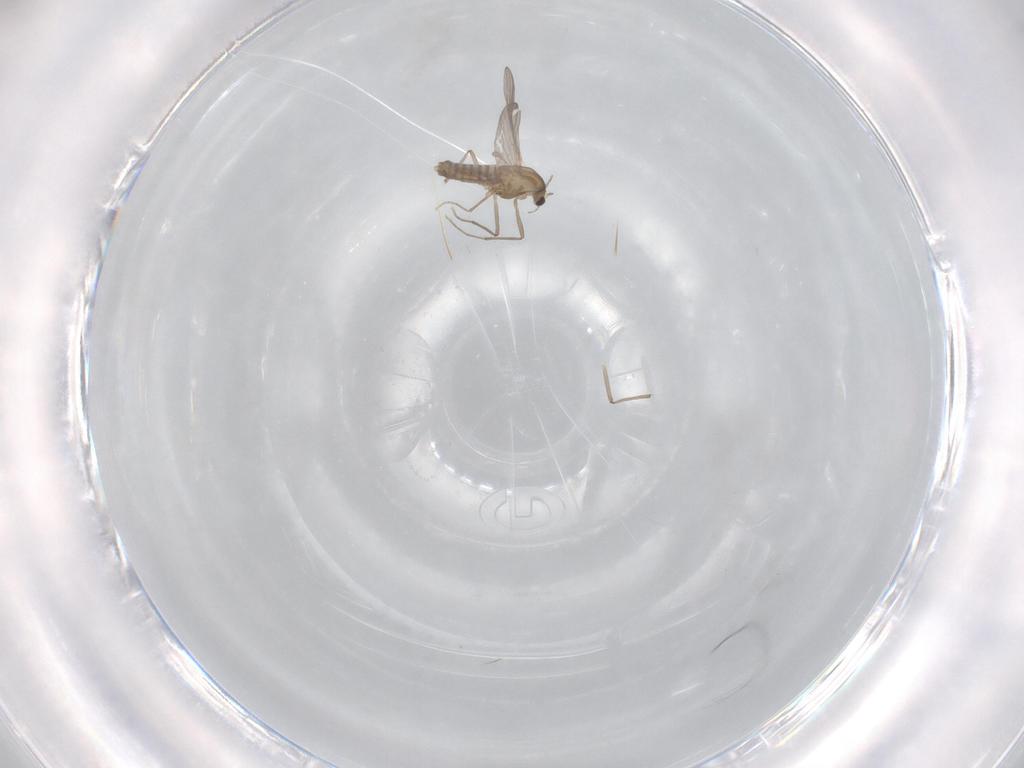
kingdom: Animalia
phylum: Arthropoda
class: Insecta
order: Diptera
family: Chironomidae
